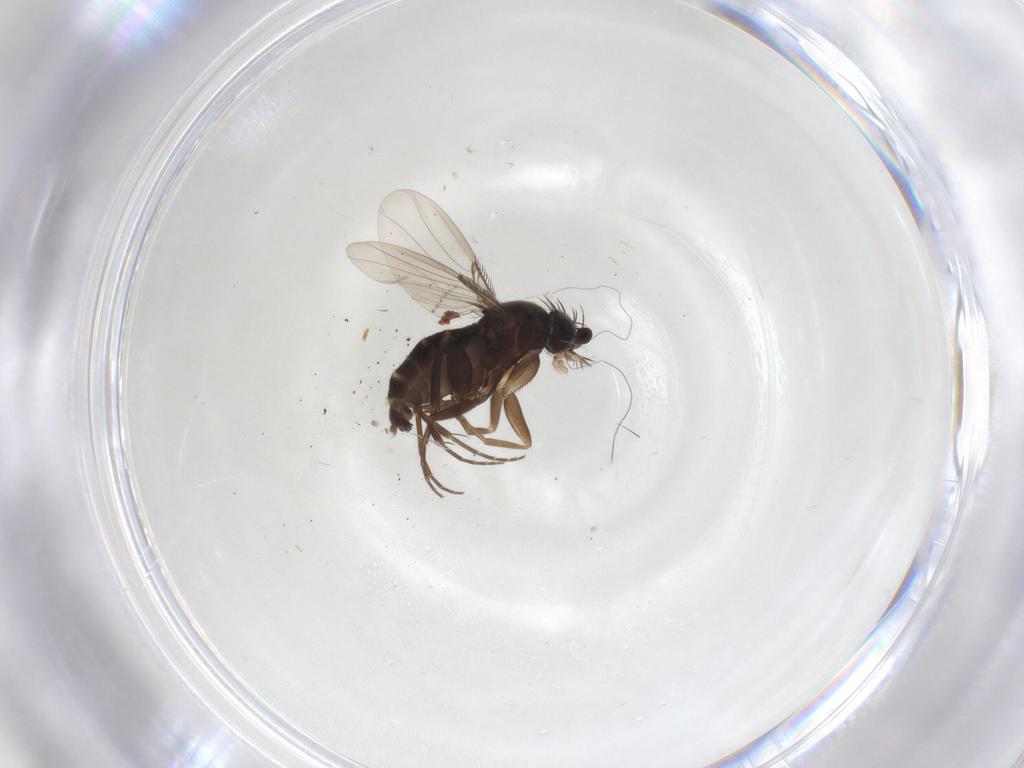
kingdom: Animalia
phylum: Arthropoda
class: Insecta
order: Diptera
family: Phoridae
